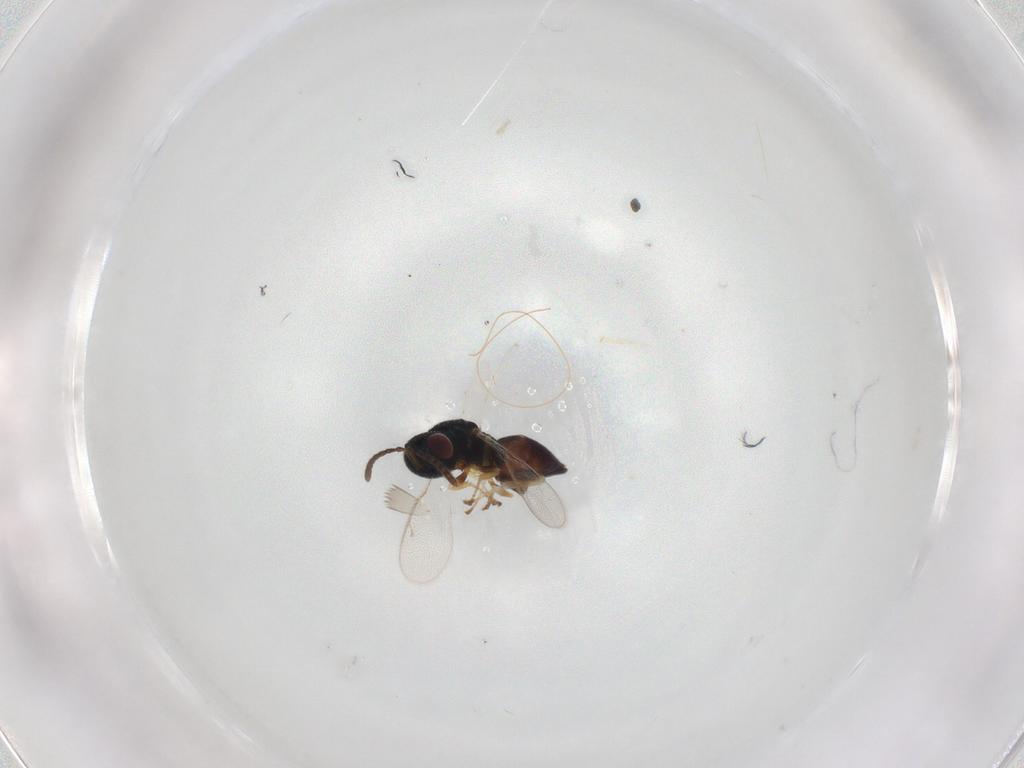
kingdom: Animalia
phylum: Arthropoda
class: Insecta
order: Hymenoptera
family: Pteromalidae
